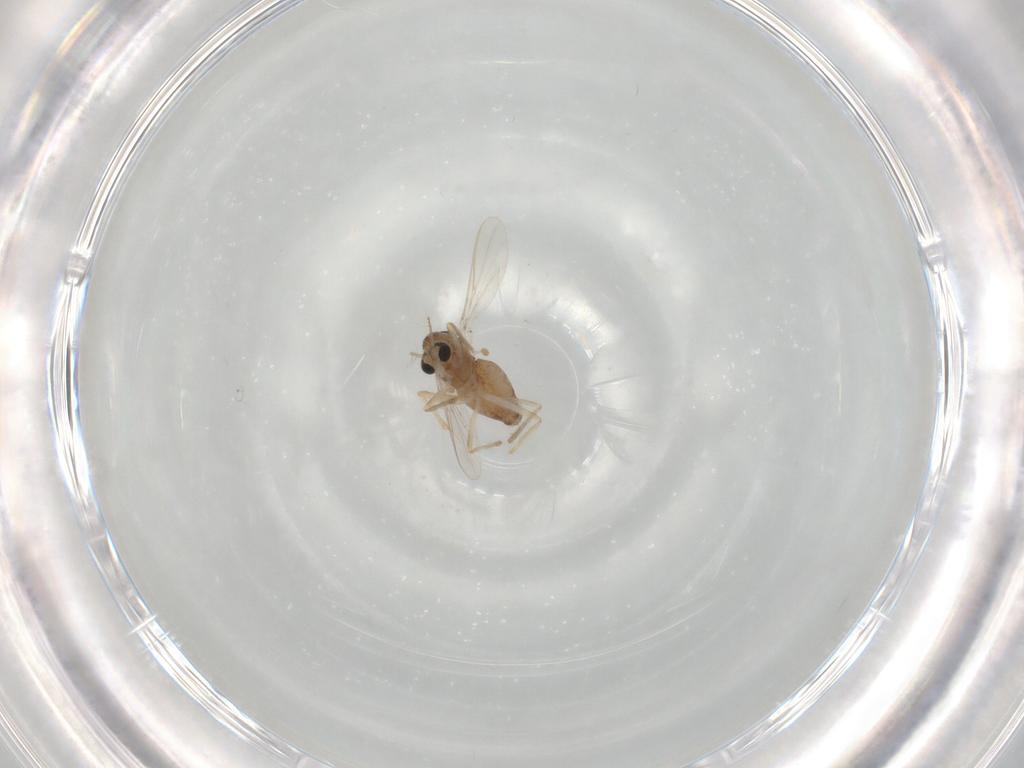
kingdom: Animalia
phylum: Arthropoda
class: Insecta
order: Diptera
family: Chironomidae
